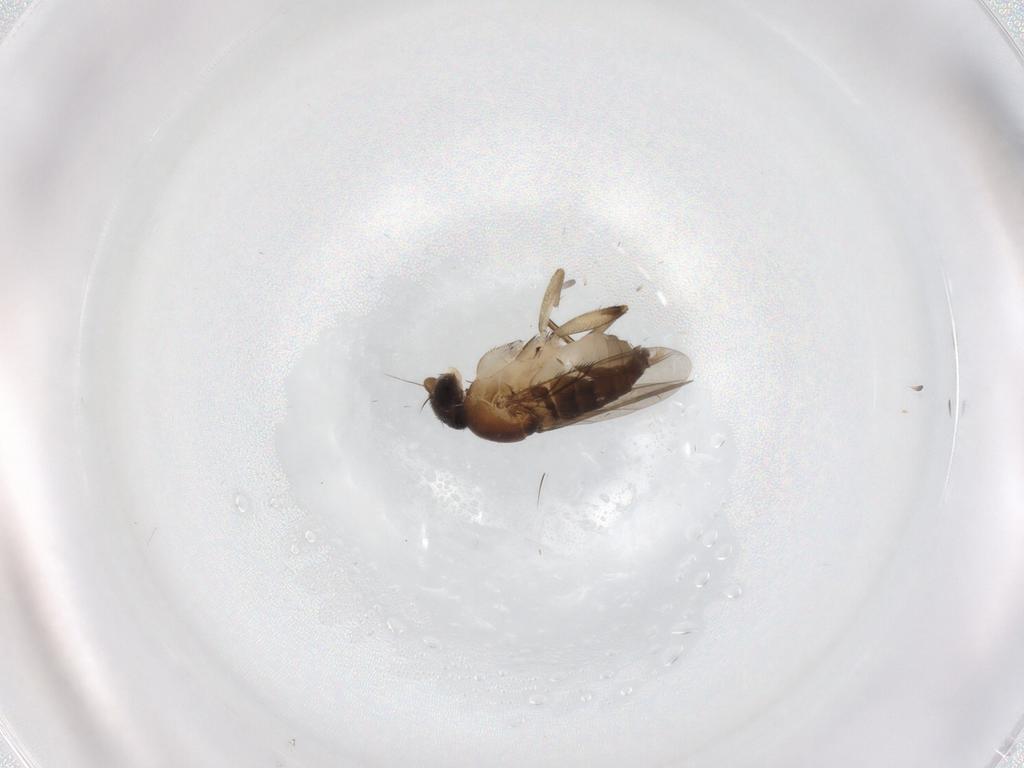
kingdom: Animalia
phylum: Arthropoda
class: Insecta
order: Diptera
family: Phoridae
